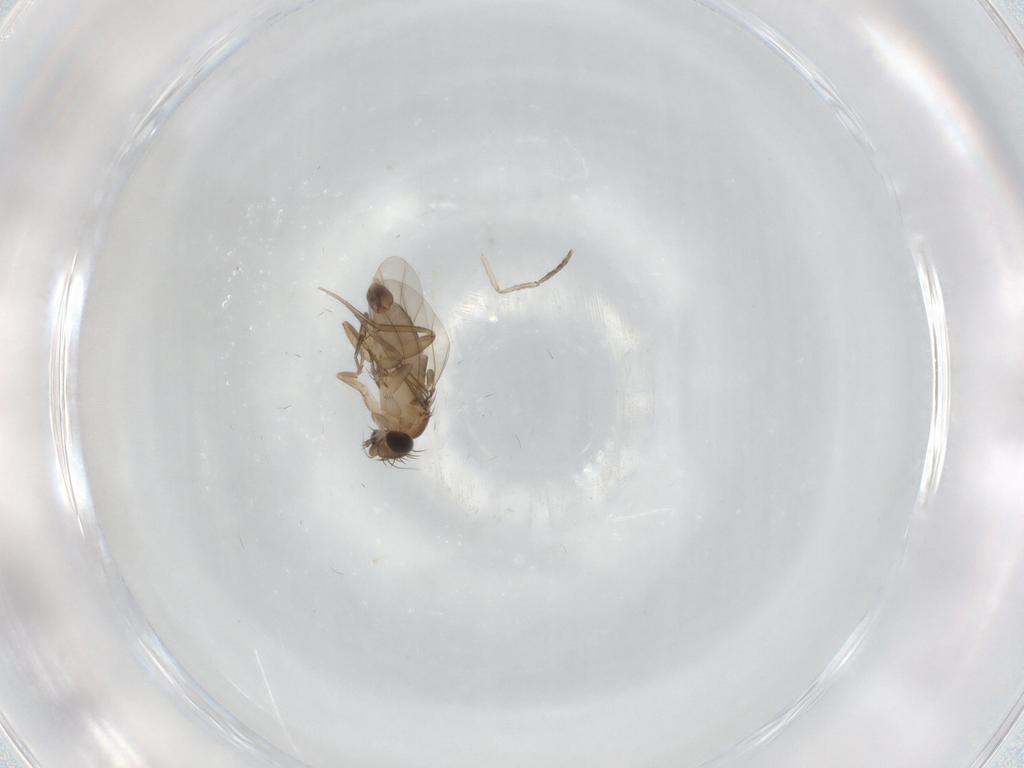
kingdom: Animalia
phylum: Arthropoda
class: Insecta
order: Diptera
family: Phoridae
